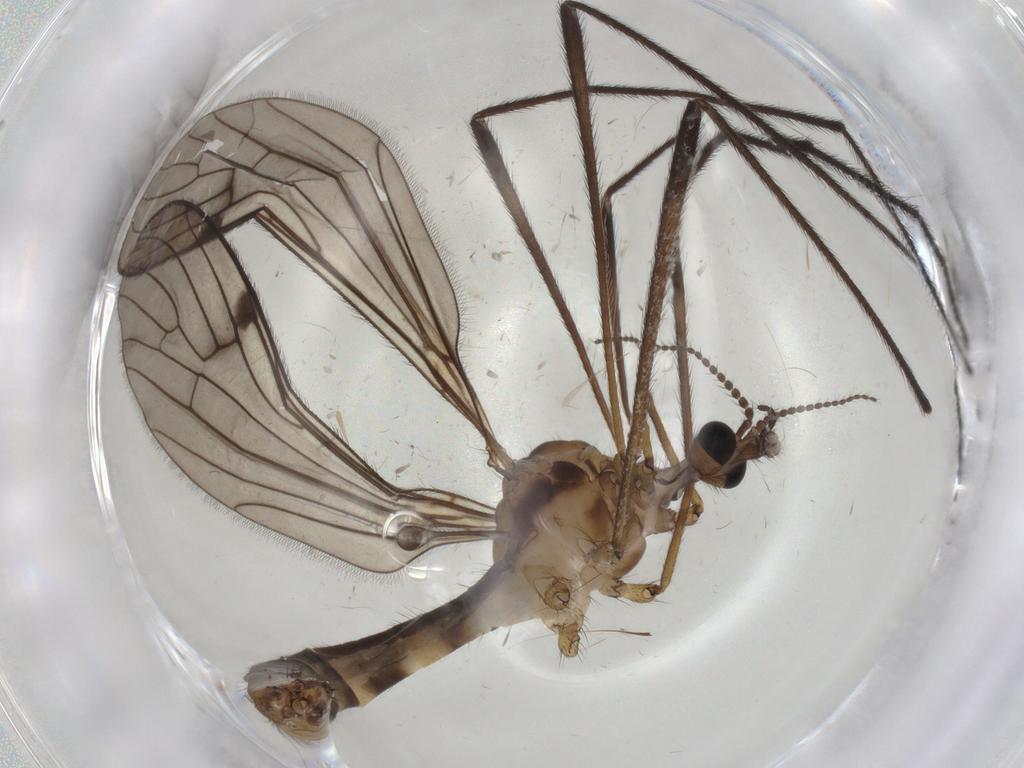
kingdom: Animalia
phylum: Arthropoda
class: Insecta
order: Diptera
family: Limoniidae
